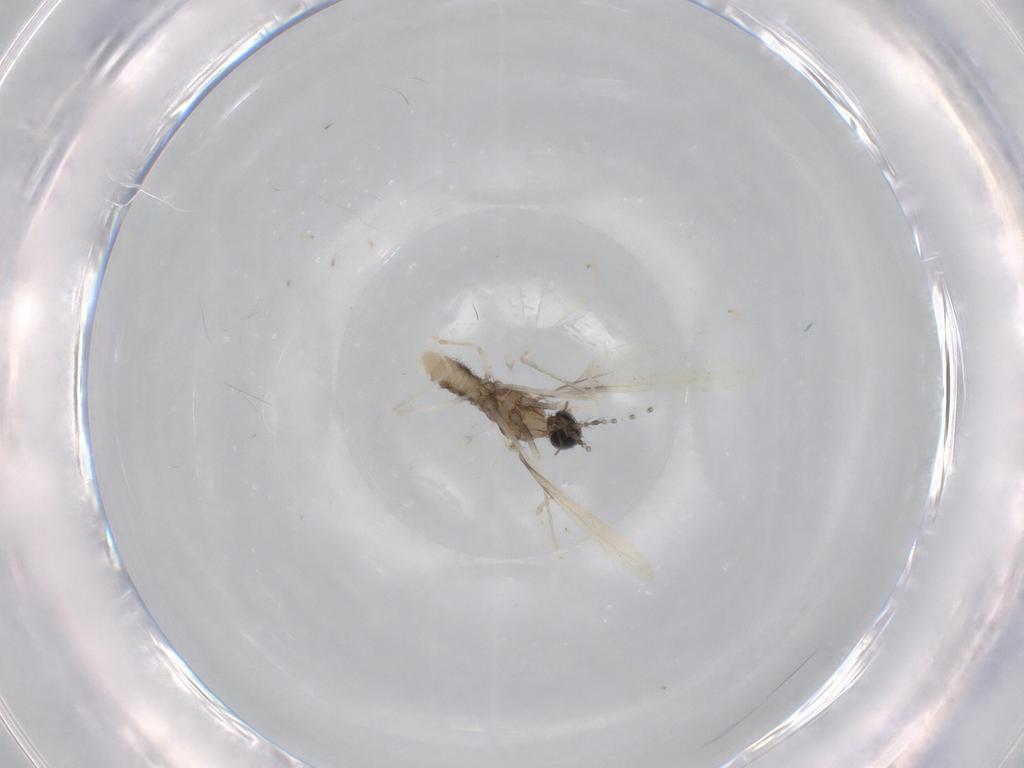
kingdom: Animalia
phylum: Arthropoda
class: Insecta
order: Diptera
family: Cecidomyiidae
